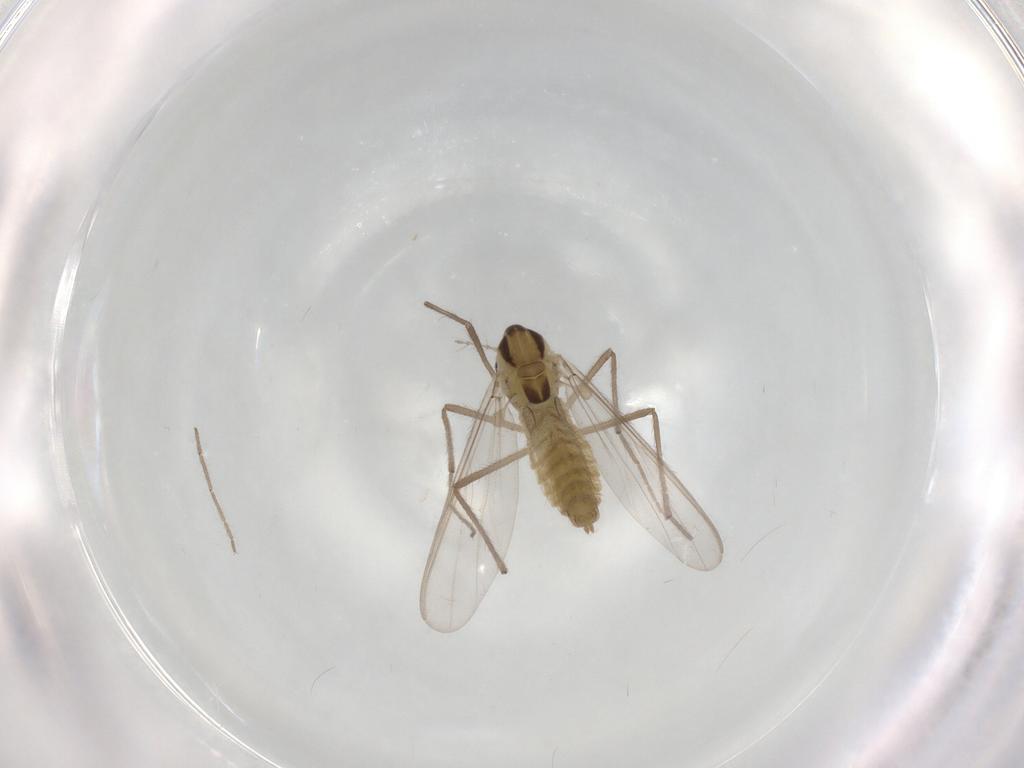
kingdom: Animalia
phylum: Arthropoda
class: Insecta
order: Diptera
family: Chironomidae
